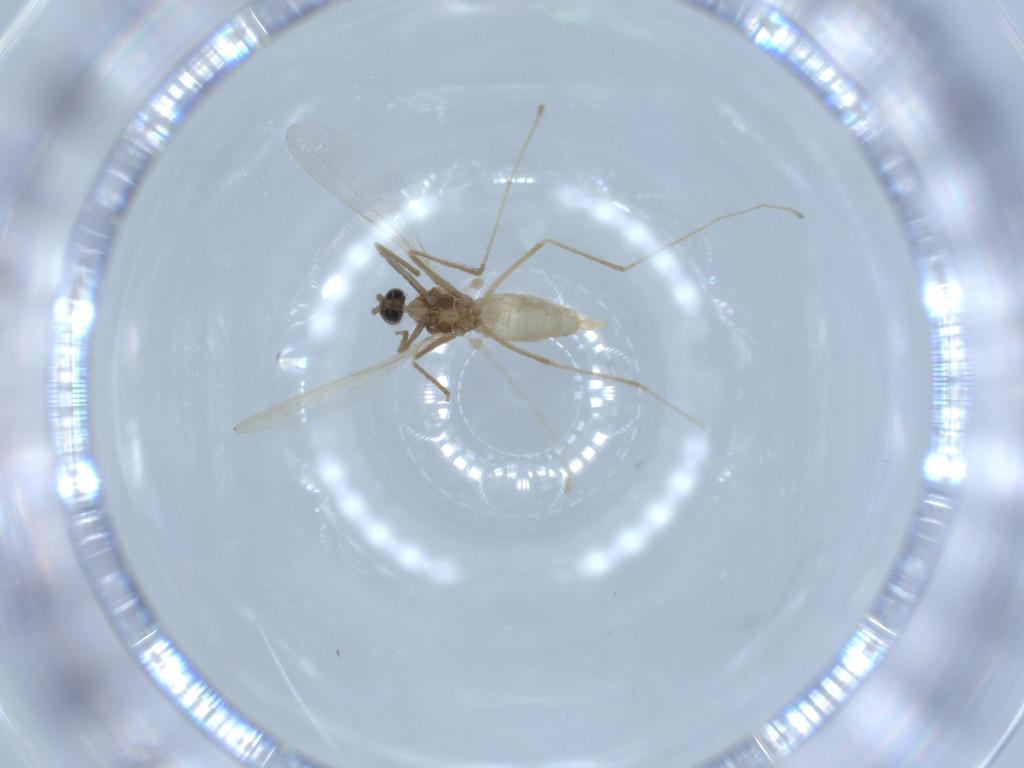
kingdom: Animalia
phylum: Arthropoda
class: Insecta
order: Diptera
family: Cecidomyiidae
